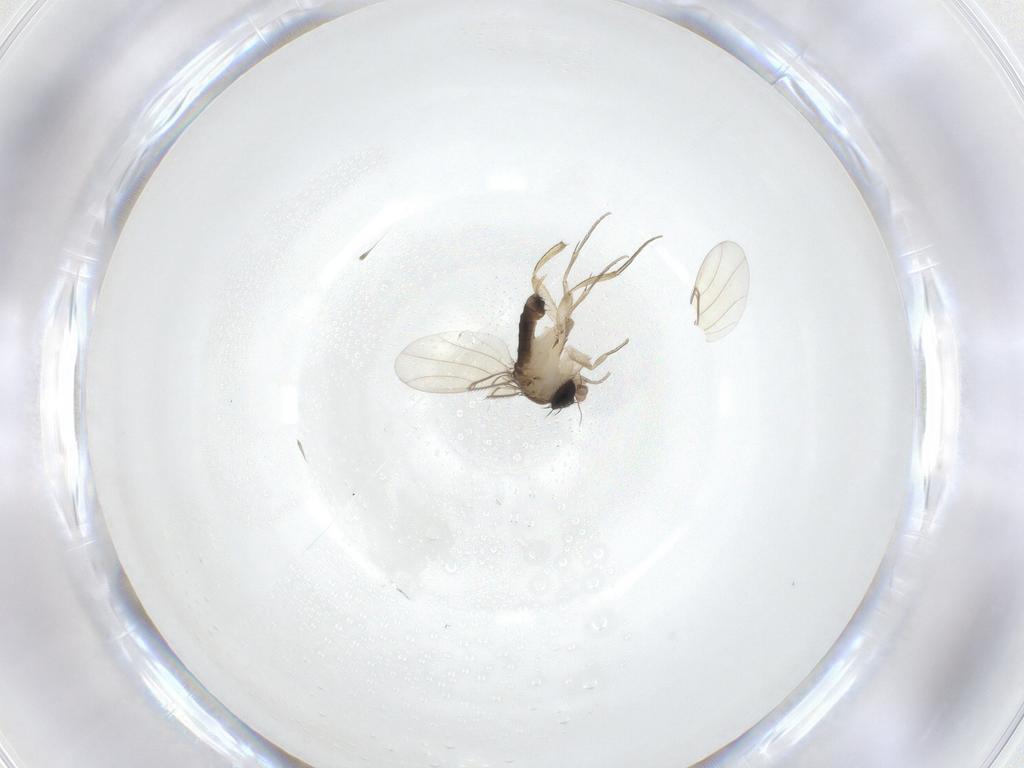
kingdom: Animalia
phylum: Arthropoda
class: Insecta
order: Diptera
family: Phoridae
